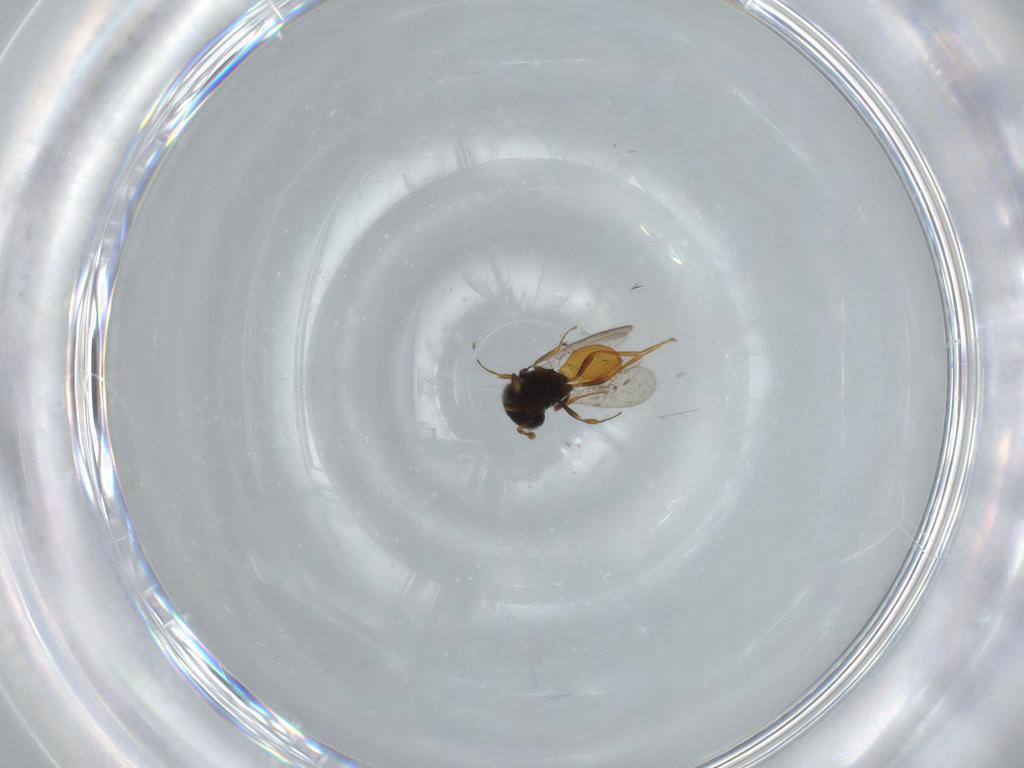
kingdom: Animalia
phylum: Arthropoda
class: Insecta
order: Hymenoptera
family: Scelionidae
